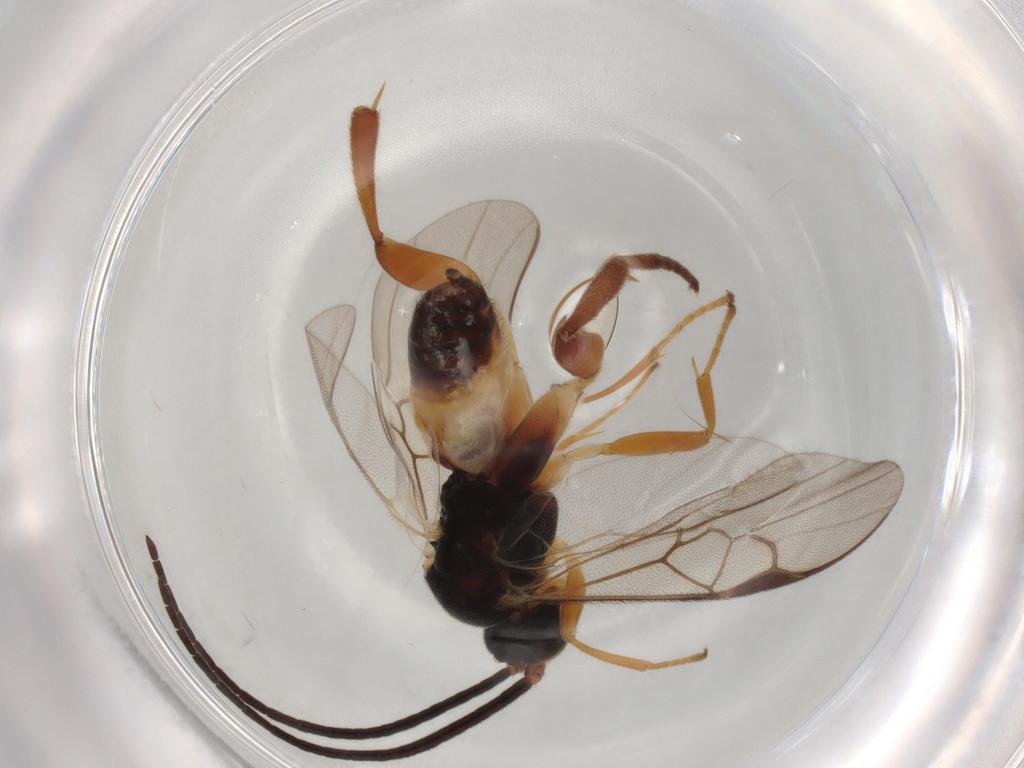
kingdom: Animalia
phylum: Arthropoda
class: Insecta
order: Hymenoptera
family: Braconidae
